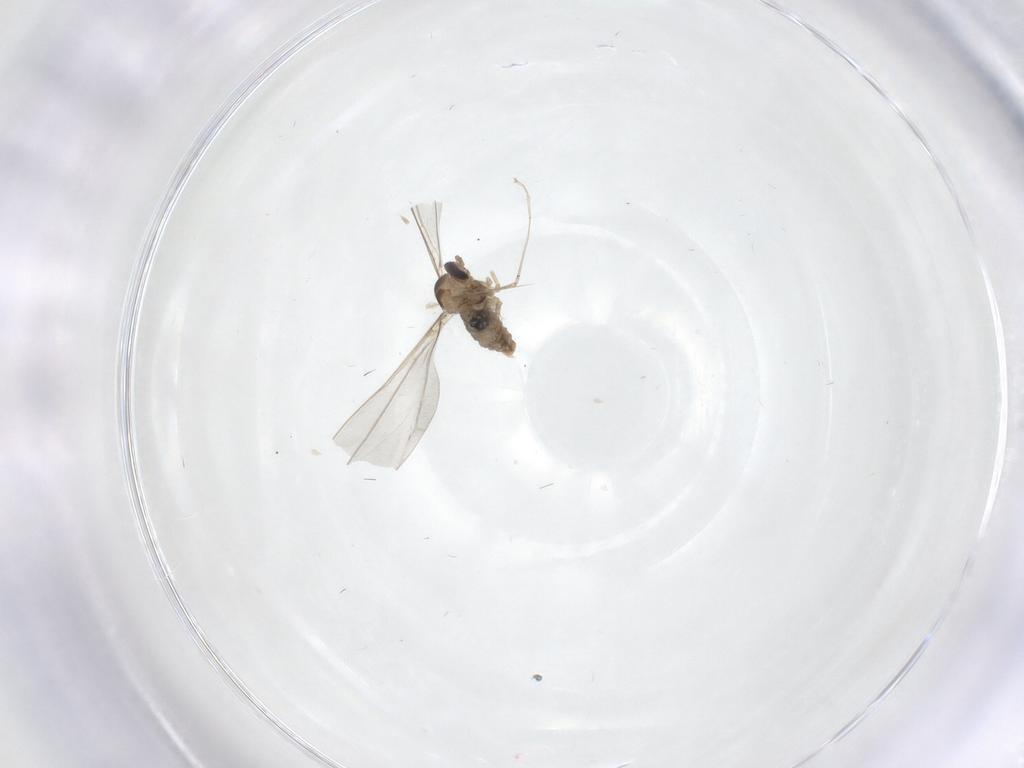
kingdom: Animalia
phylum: Arthropoda
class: Insecta
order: Diptera
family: Cecidomyiidae
